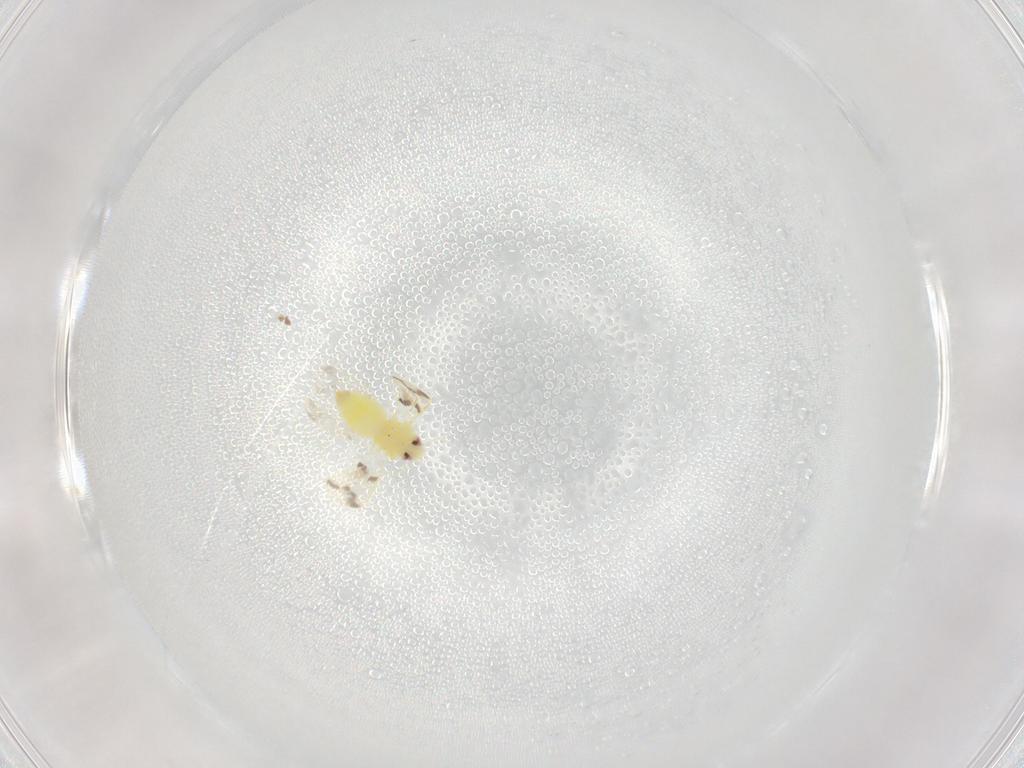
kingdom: Animalia
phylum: Arthropoda
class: Insecta
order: Hemiptera
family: Aleyrodidae
